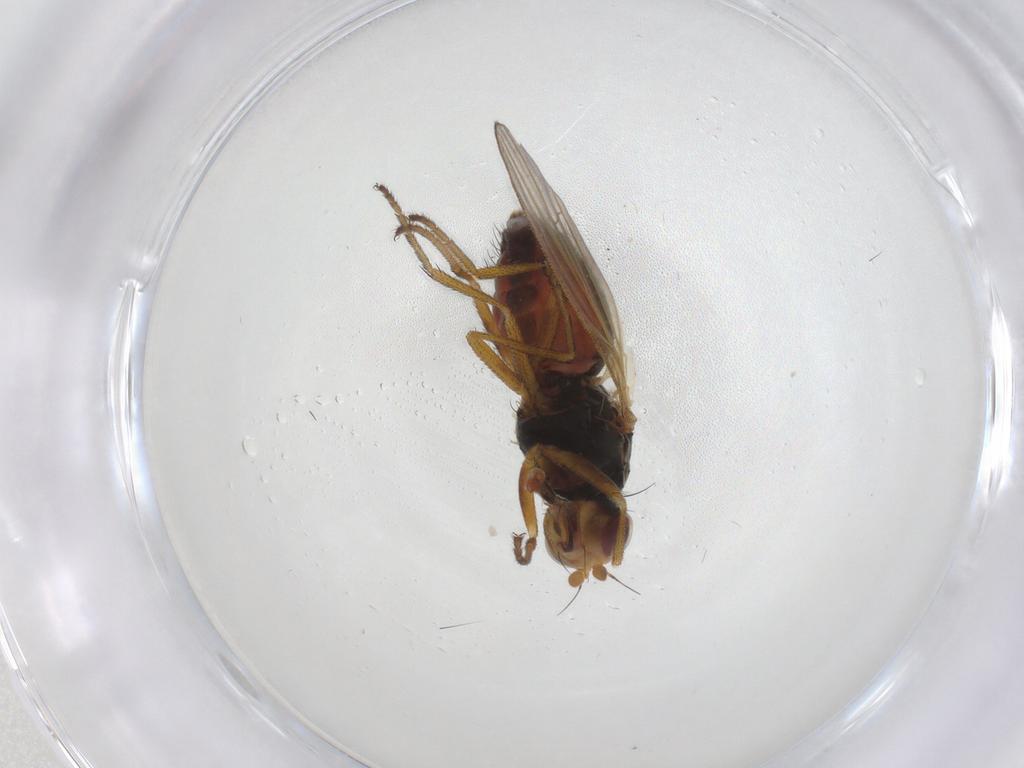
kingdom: Animalia
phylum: Arthropoda
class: Insecta
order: Diptera
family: Heleomyzidae
